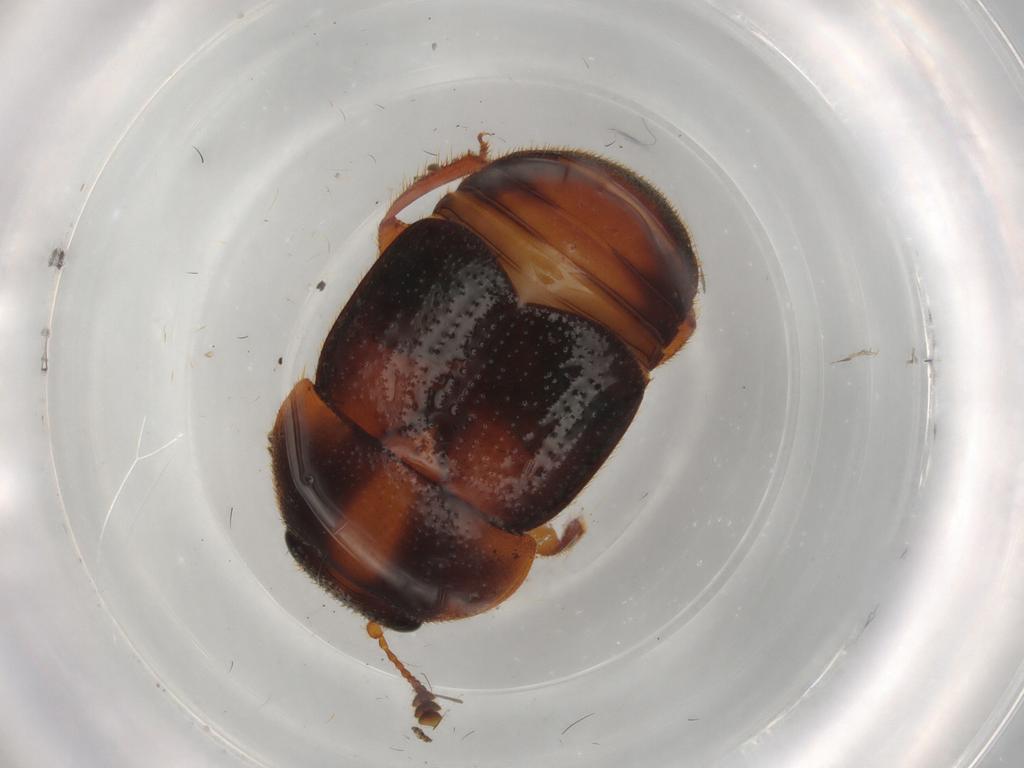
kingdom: Animalia
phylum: Arthropoda
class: Insecta
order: Coleoptera
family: Nitidulidae
